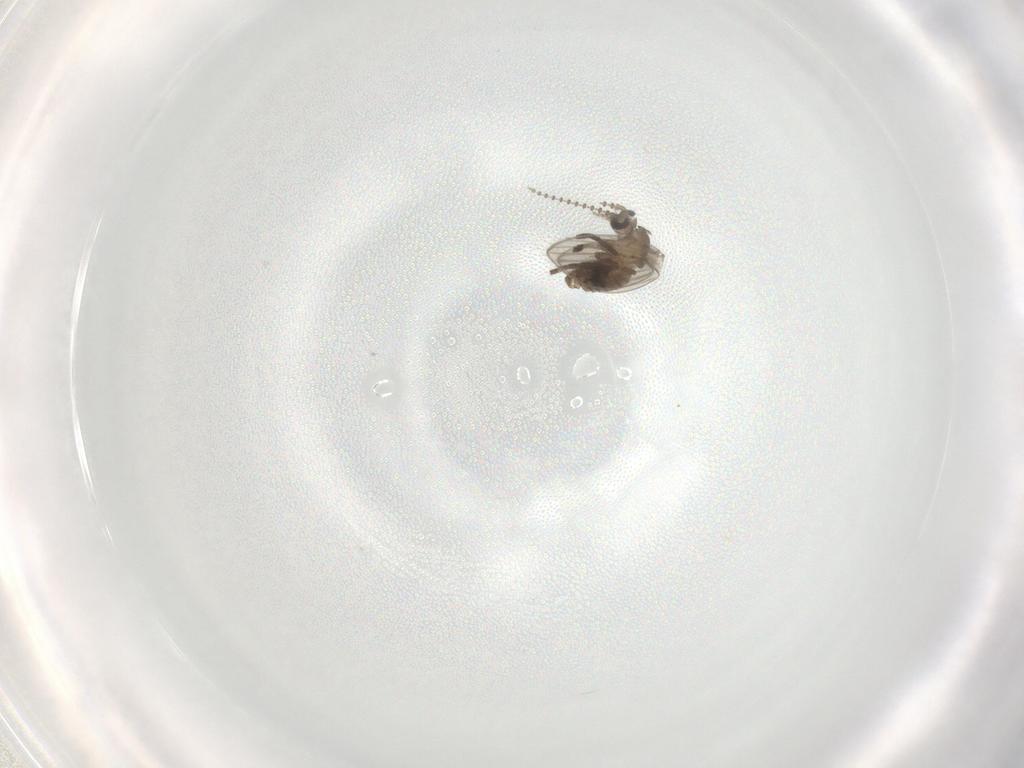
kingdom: Animalia
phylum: Arthropoda
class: Insecta
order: Diptera
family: Psychodidae
